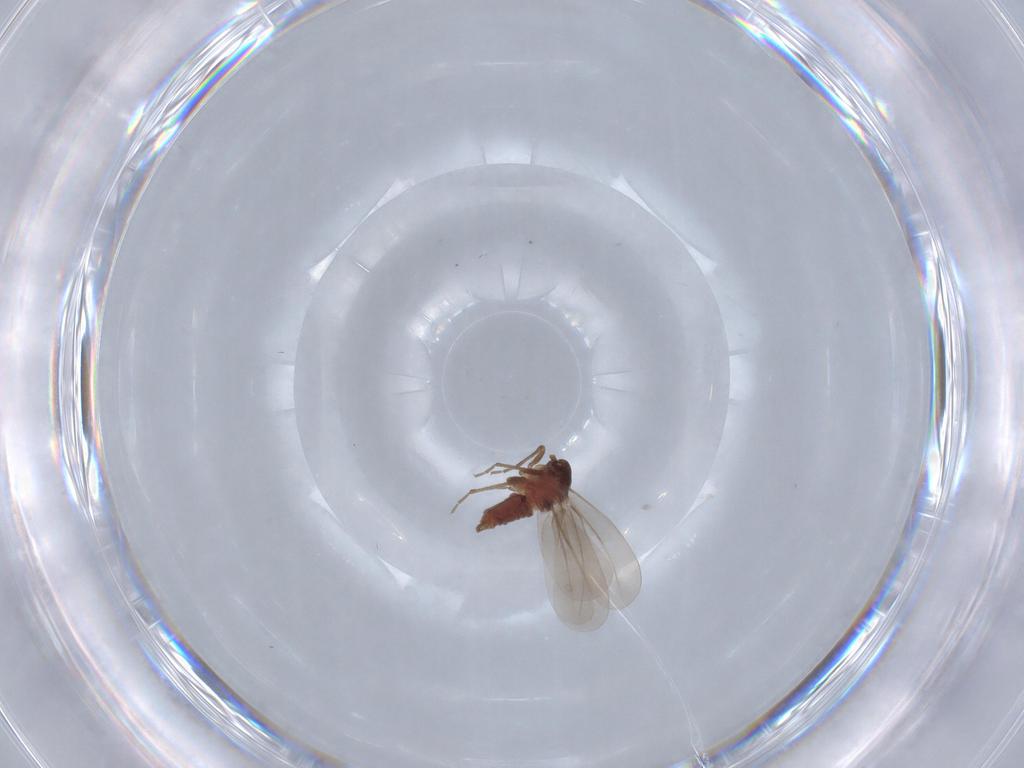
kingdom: Animalia
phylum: Arthropoda
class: Insecta
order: Hemiptera
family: Aleyrodidae
